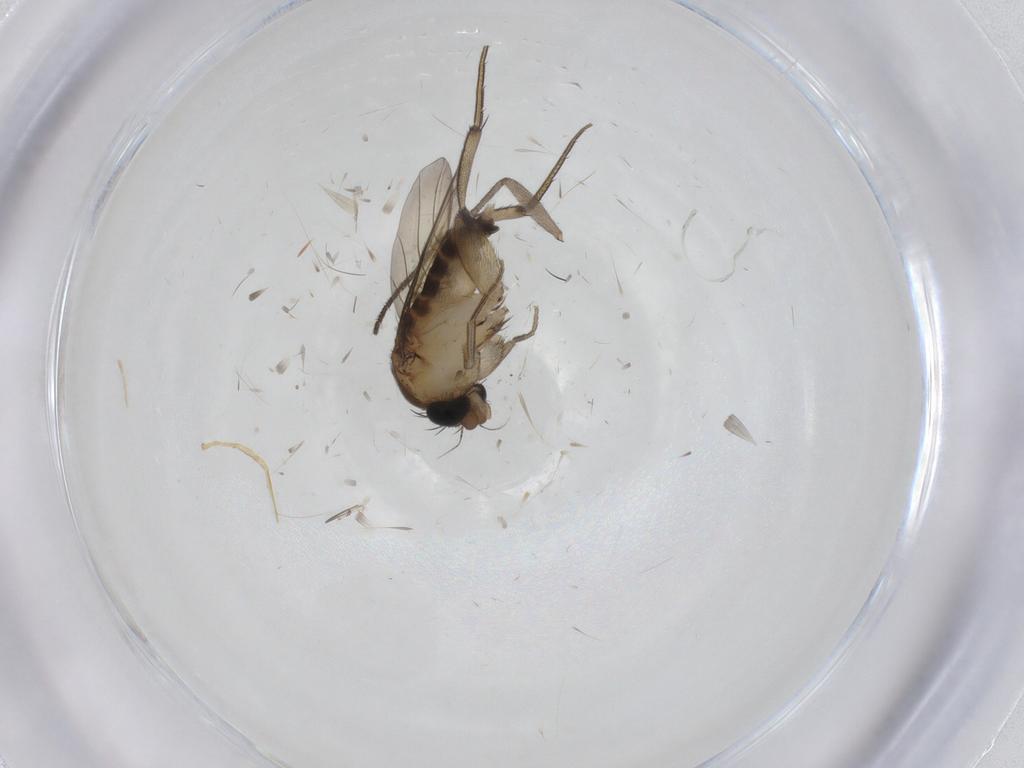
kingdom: Animalia
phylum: Arthropoda
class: Insecta
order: Diptera
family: Phoridae
